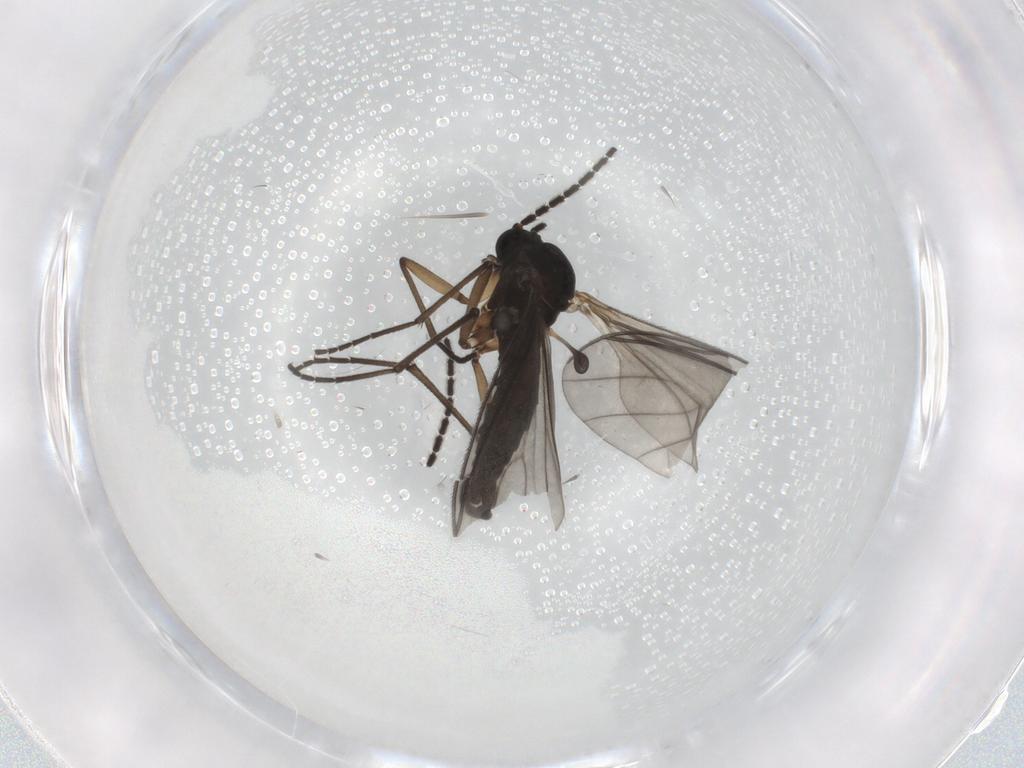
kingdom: Animalia
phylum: Arthropoda
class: Insecta
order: Diptera
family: Sciaridae
